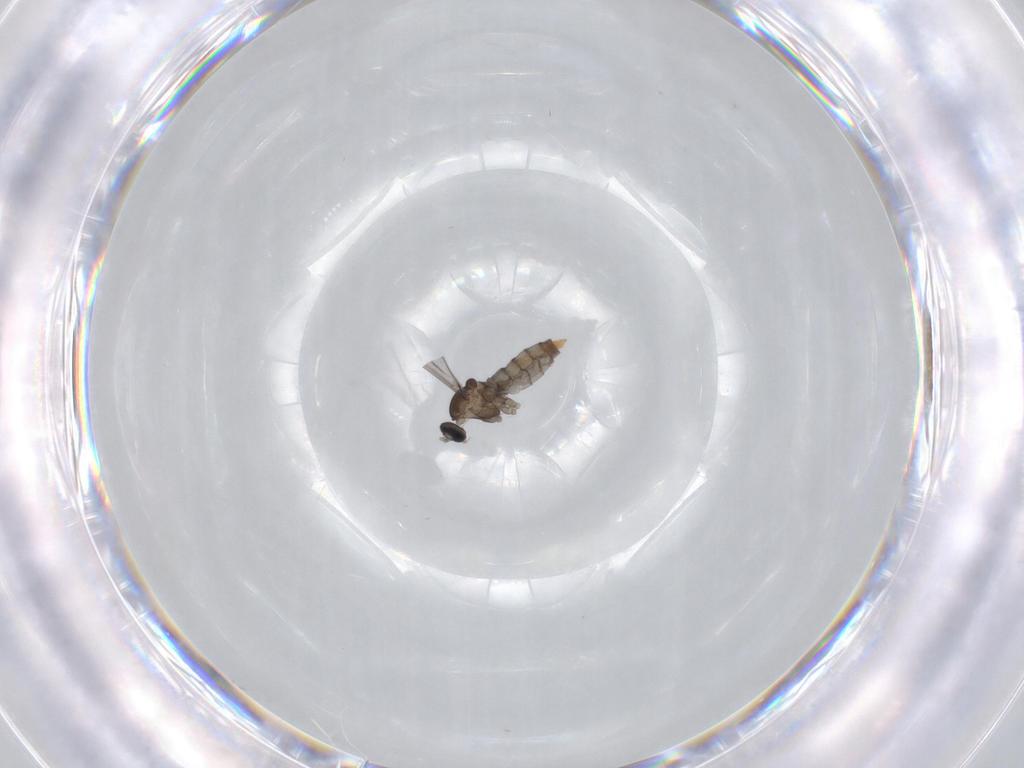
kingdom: Animalia
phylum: Arthropoda
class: Insecta
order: Diptera
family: Cecidomyiidae
